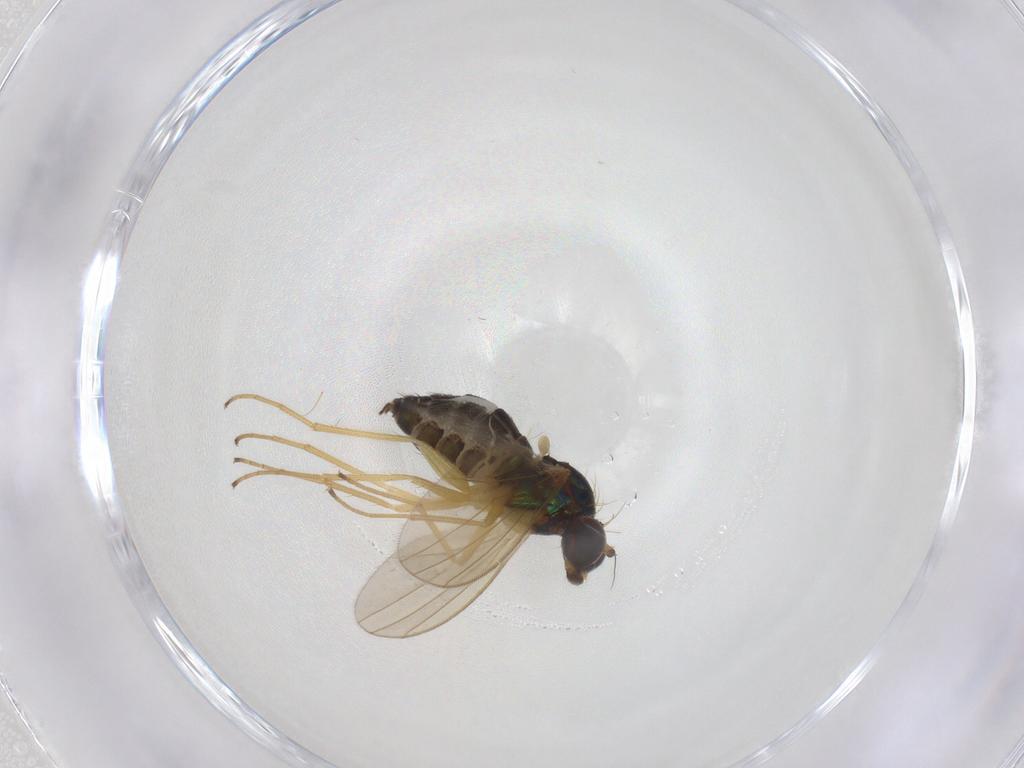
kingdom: Animalia
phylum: Arthropoda
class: Insecta
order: Diptera
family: Dolichopodidae
